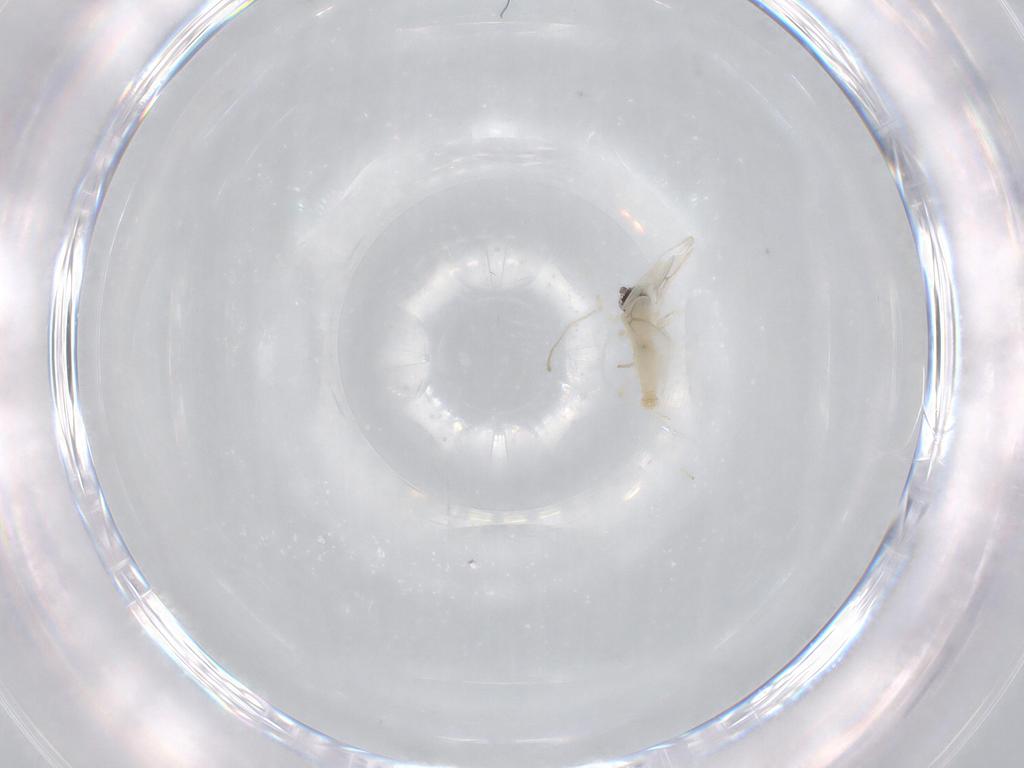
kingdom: Animalia
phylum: Arthropoda
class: Insecta
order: Diptera
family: Cecidomyiidae
